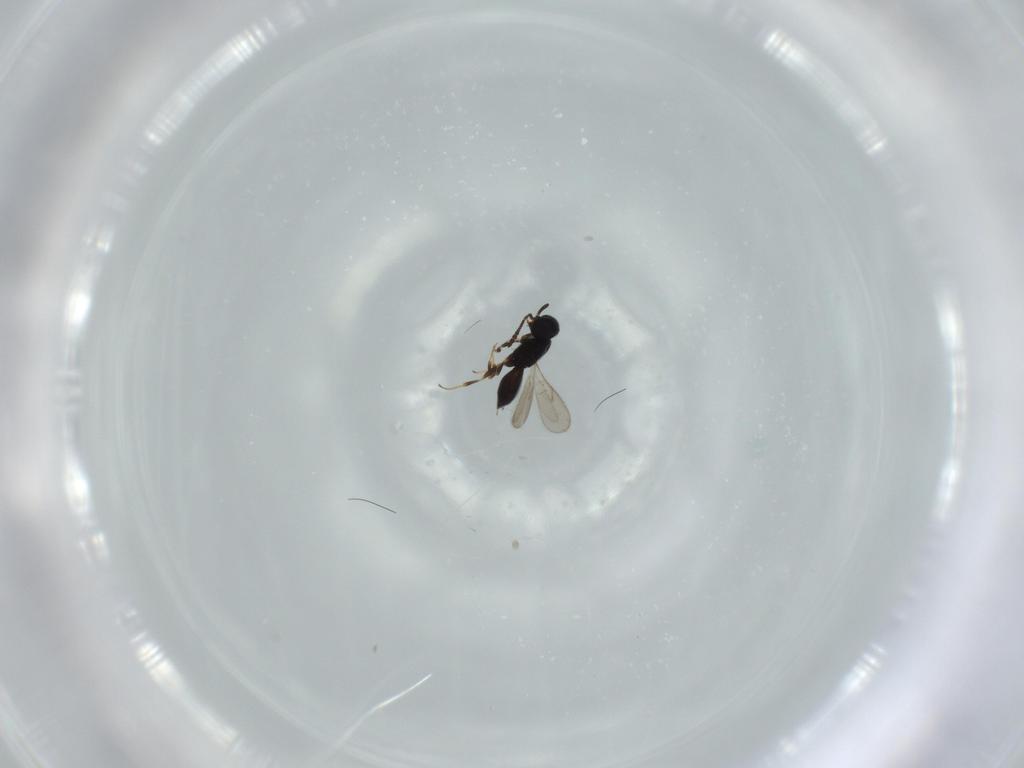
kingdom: Animalia
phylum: Arthropoda
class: Insecta
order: Hymenoptera
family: Scelionidae
